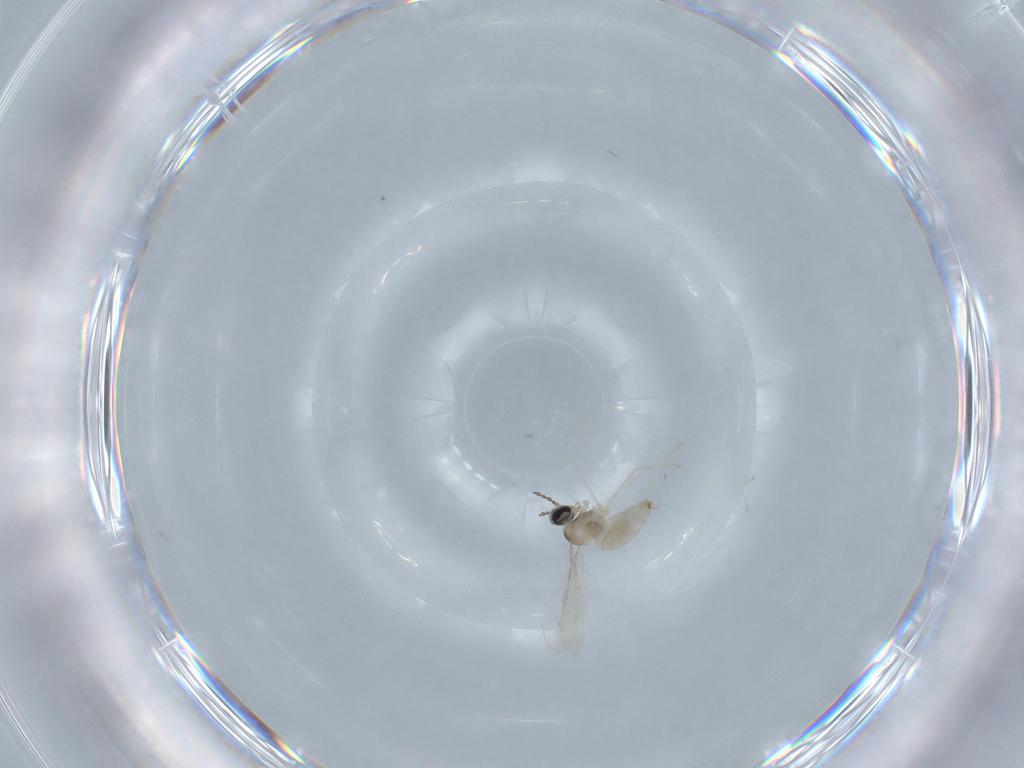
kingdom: Animalia
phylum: Arthropoda
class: Insecta
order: Diptera
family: Cecidomyiidae
